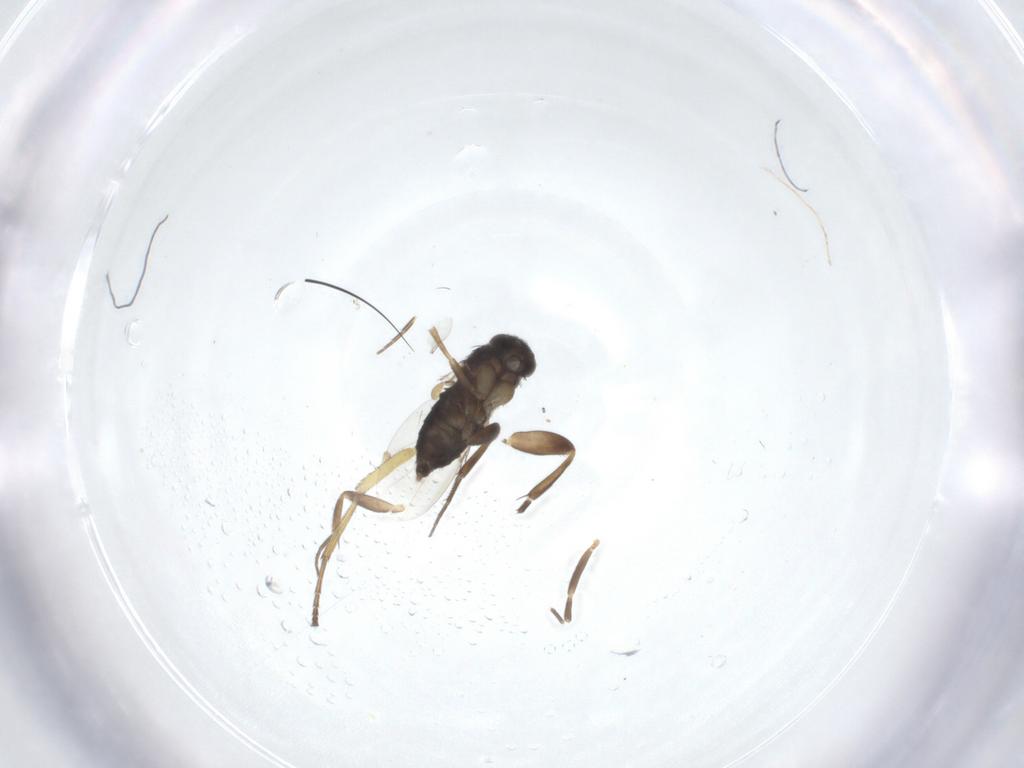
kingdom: Animalia
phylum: Arthropoda
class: Insecta
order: Diptera
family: Phoridae
